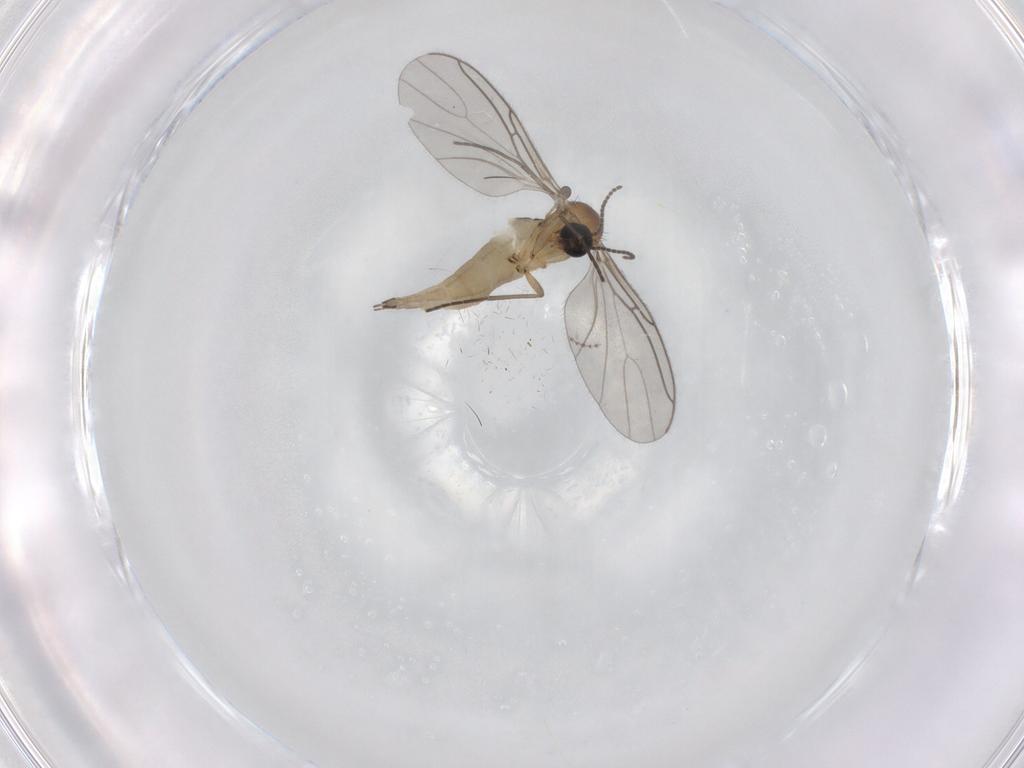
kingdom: Animalia
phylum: Arthropoda
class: Insecta
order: Diptera
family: Sciaridae
